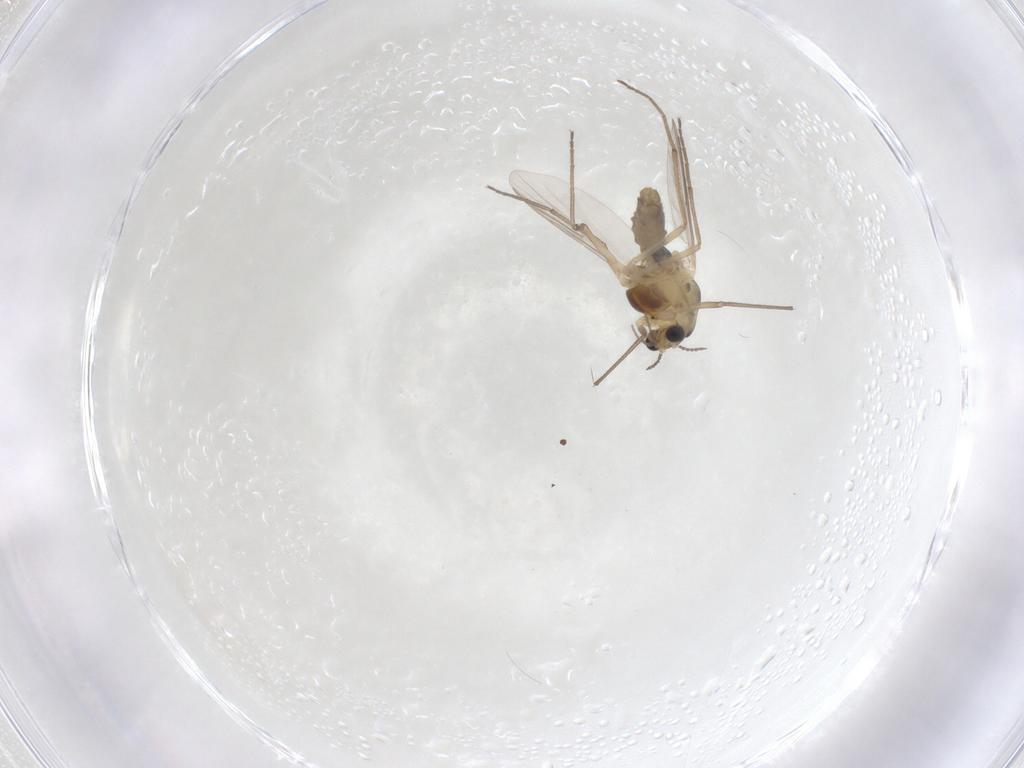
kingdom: Animalia
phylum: Arthropoda
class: Insecta
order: Diptera
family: Chironomidae
